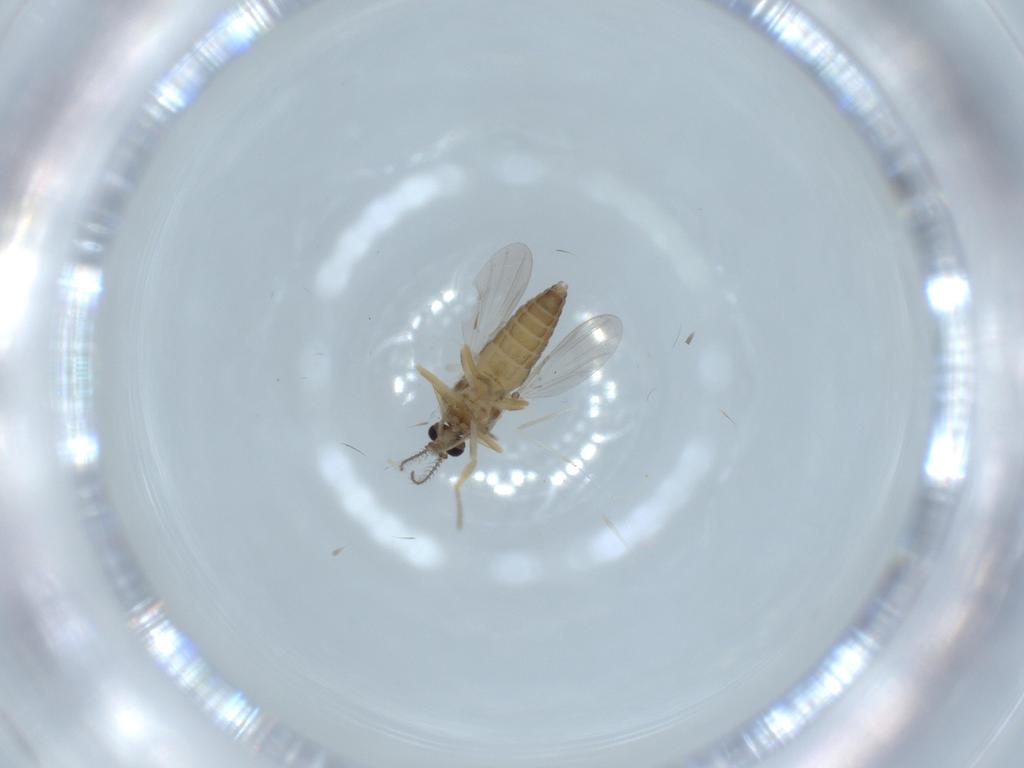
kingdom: Animalia
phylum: Arthropoda
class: Insecta
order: Diptera
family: Ceratopogonidae
